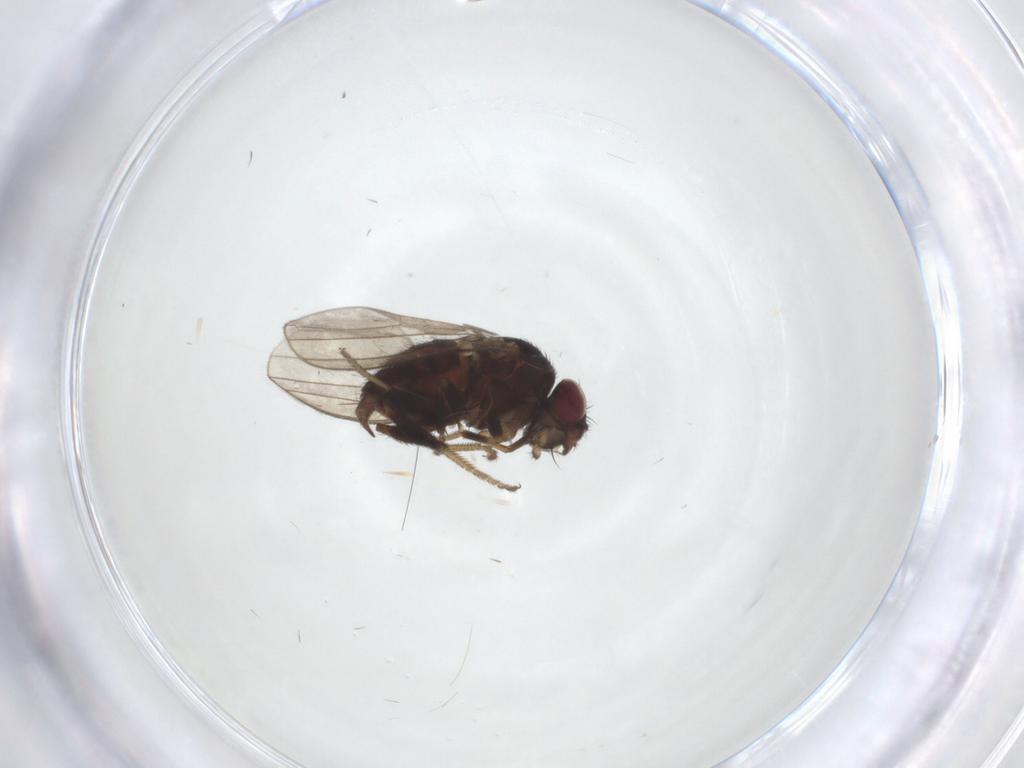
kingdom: Animalia
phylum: Arthropoda
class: Insecta
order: Diptera
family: Milichiidae
